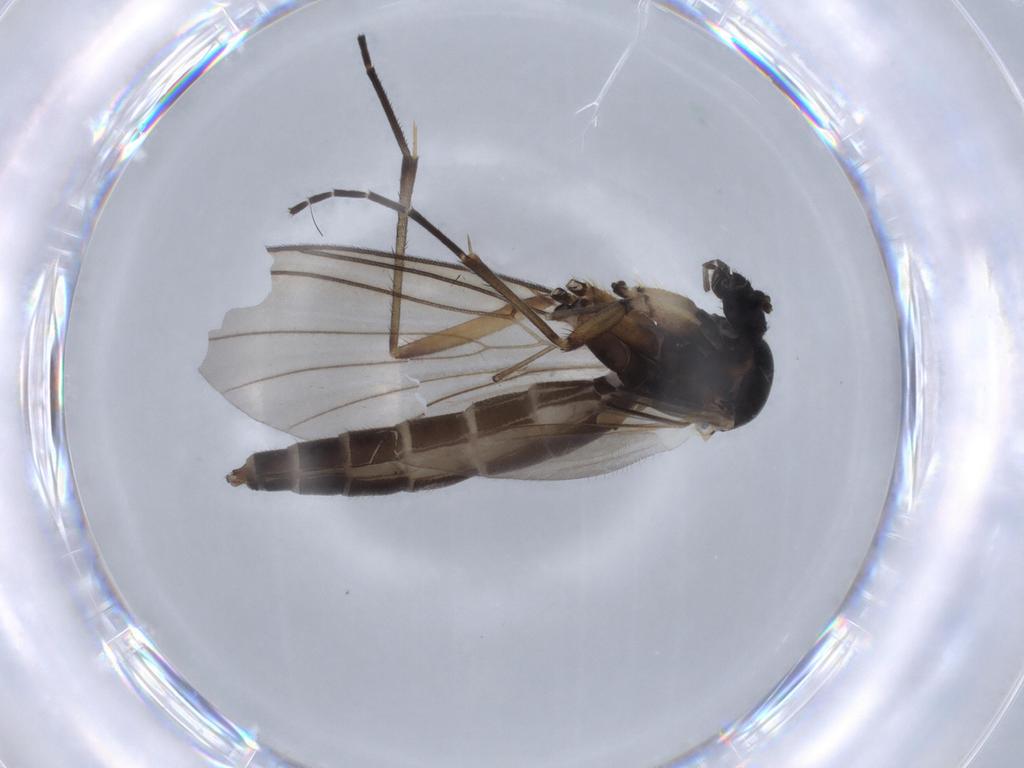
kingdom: Animalia
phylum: Arthropoda
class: Insecta
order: Diptera
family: Mycetophilidae
